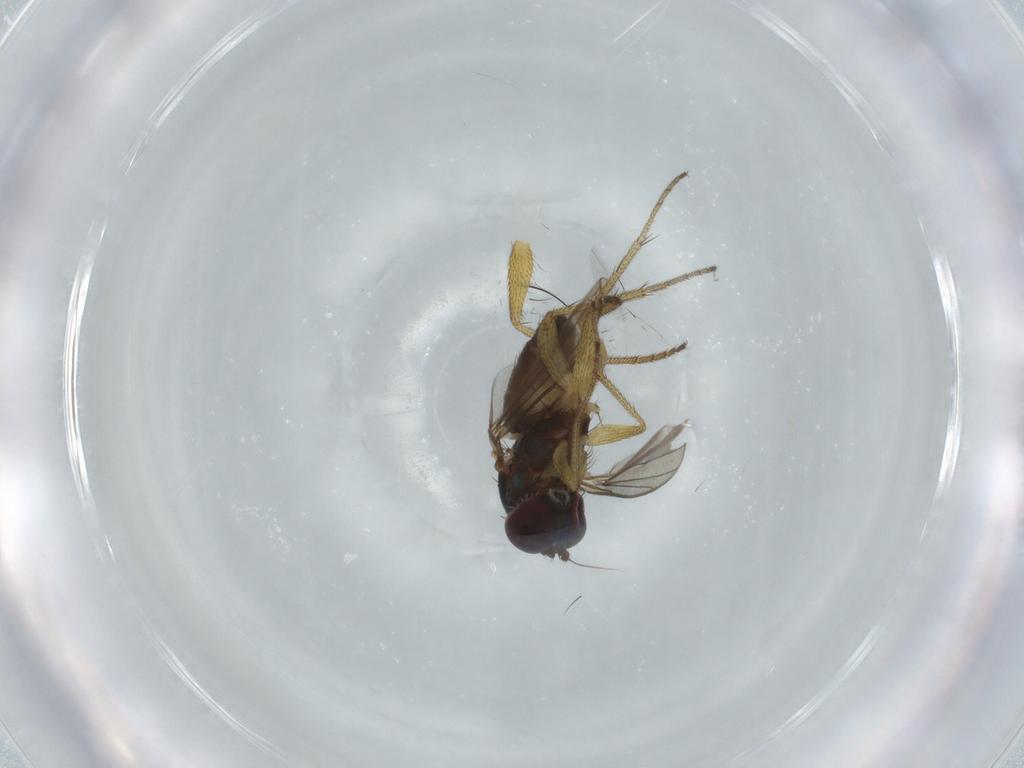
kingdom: Animalia
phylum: Arthropoda
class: Insecta
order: Diptera
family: Dolichopodidae
